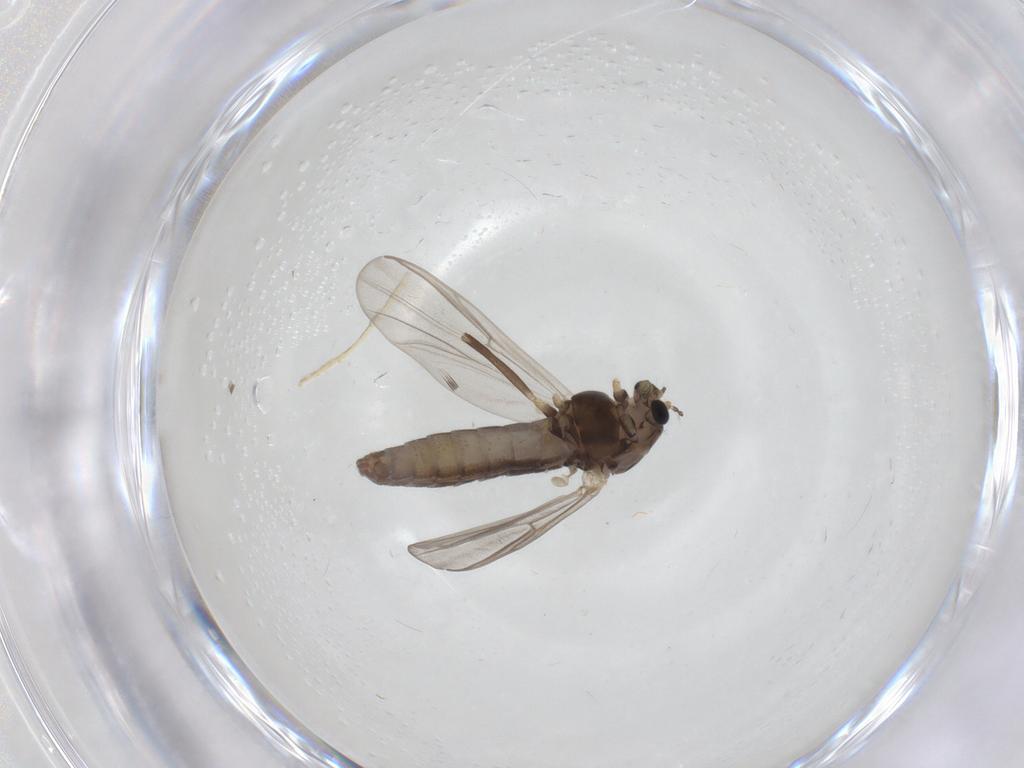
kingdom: Animalia
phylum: Arthropoda
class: Insecta
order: Diptera
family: Chironomidae
